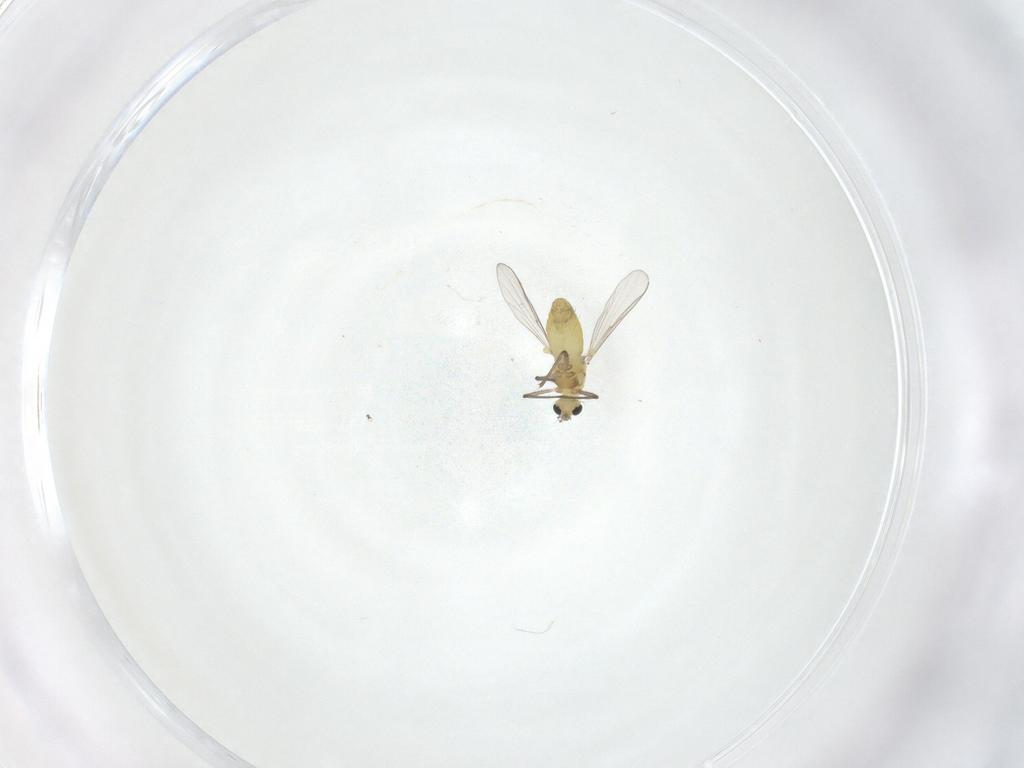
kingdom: Animalia
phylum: Arthropoda
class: Insecta
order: Diptera
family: Chironomidae
